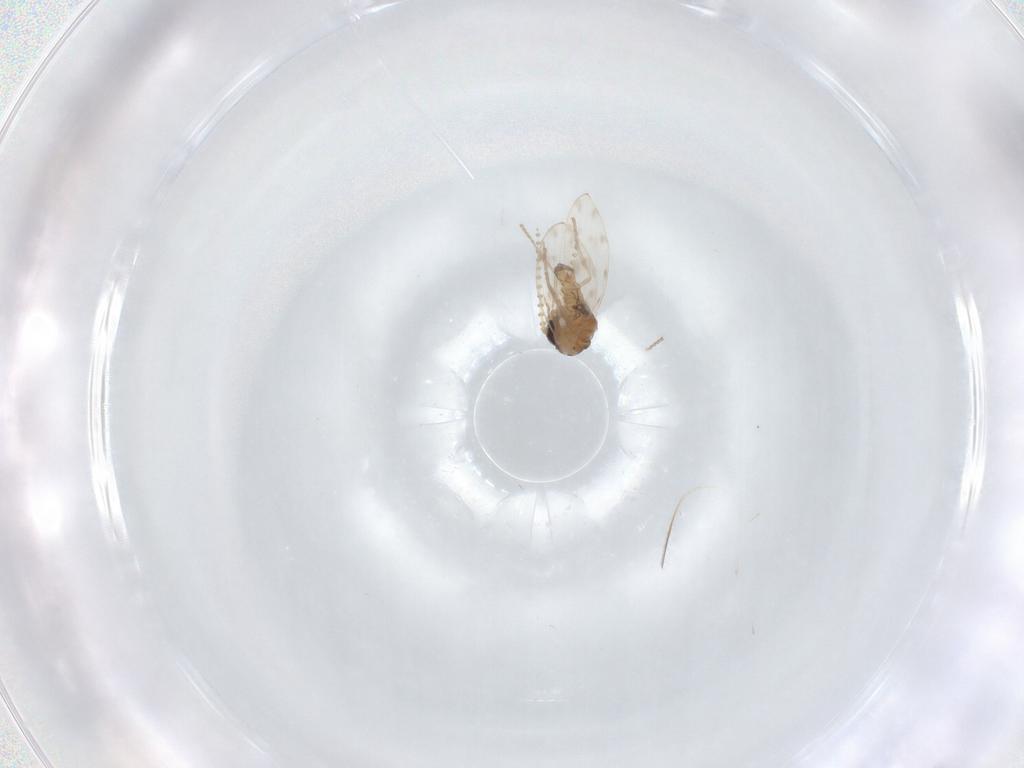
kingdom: Animalia
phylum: Arthropoda
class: Insecta
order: Diptera
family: Psychodidae
